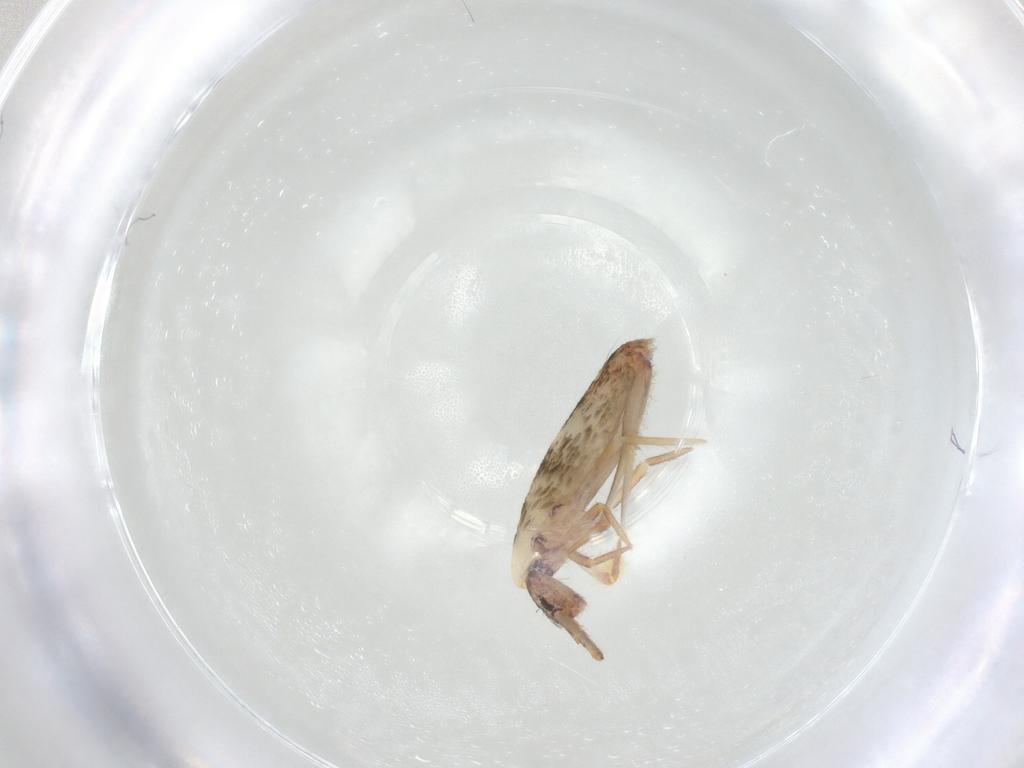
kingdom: Animalia
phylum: Arthropoda
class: Collembola
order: Entomobryomorpha
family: Entomobryidae
